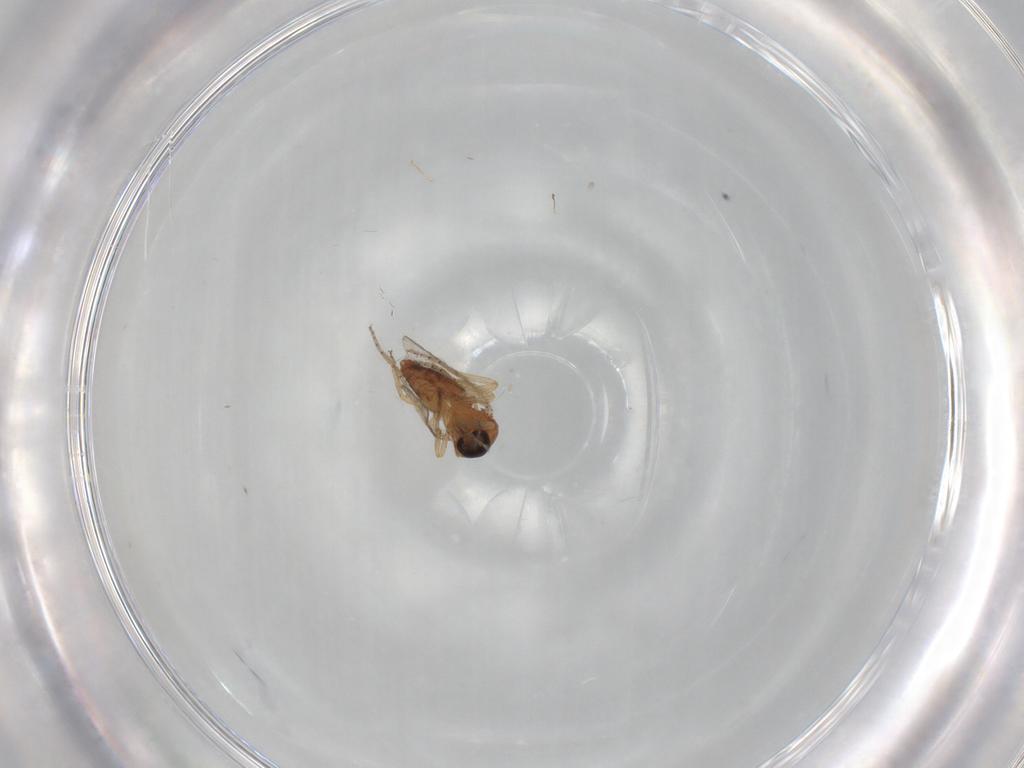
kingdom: Animalia
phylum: Arthropoda
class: Insecta
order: Diptera
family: Ceratopogonidae
